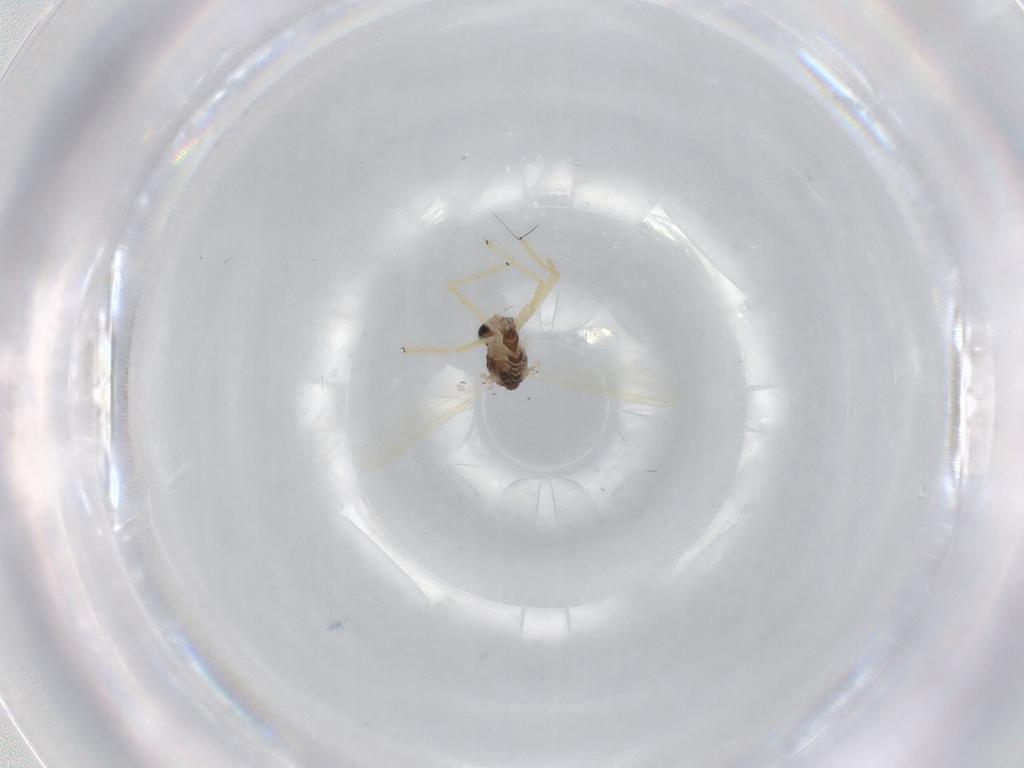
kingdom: Animalia
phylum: Arthropoda
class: Insecta
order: Diptera
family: Chironomidae
